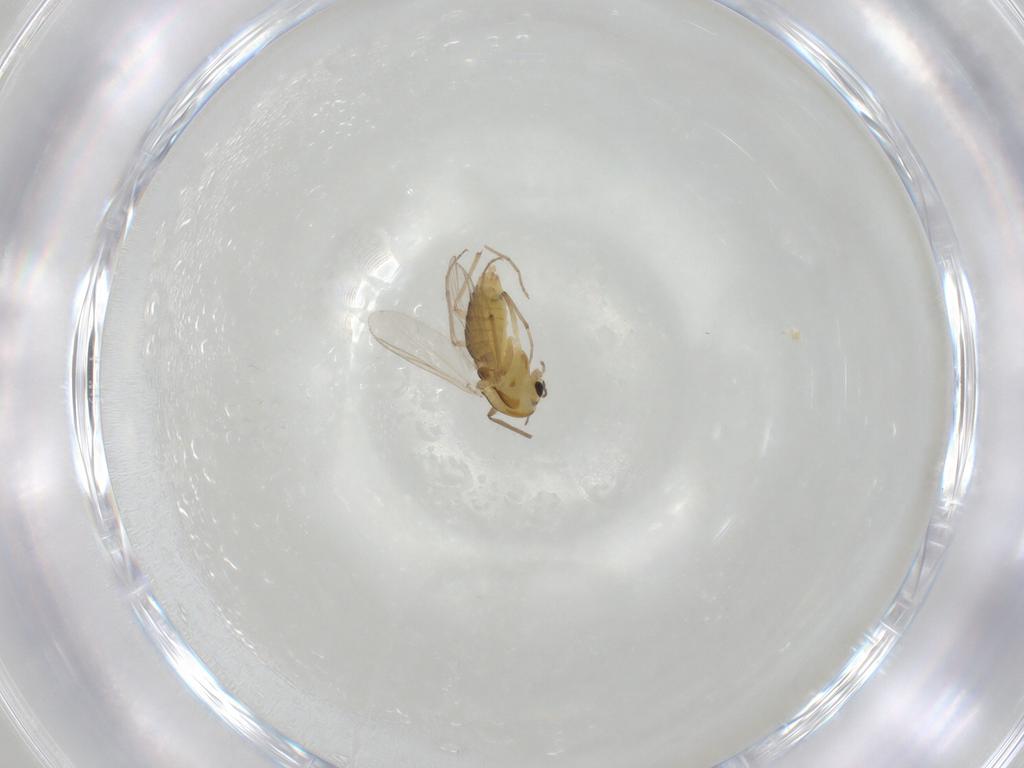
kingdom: Animalia
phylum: Arthropoda
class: Insecta
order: Diptera
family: Chironomidae
